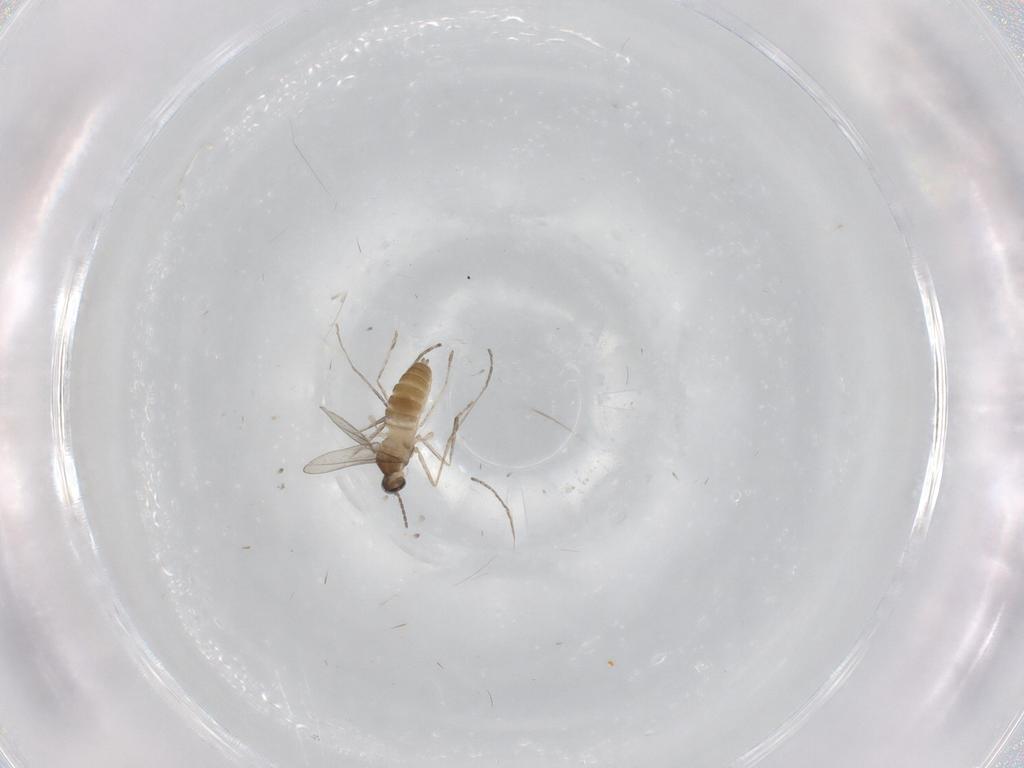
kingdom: Animalia
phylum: Arthropoda
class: Insecta
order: Diptera
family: Cecidomyiidae
